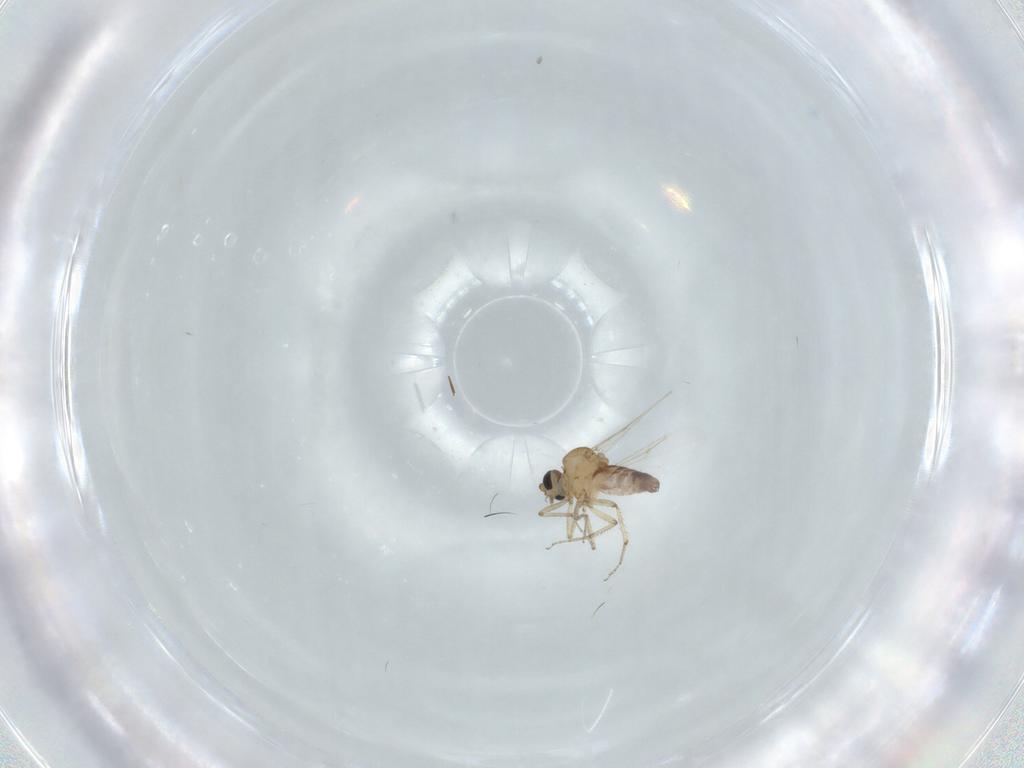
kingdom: Animalia
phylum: Arthropoda
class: Insecta
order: Diptera
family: Ceratopogonidae
